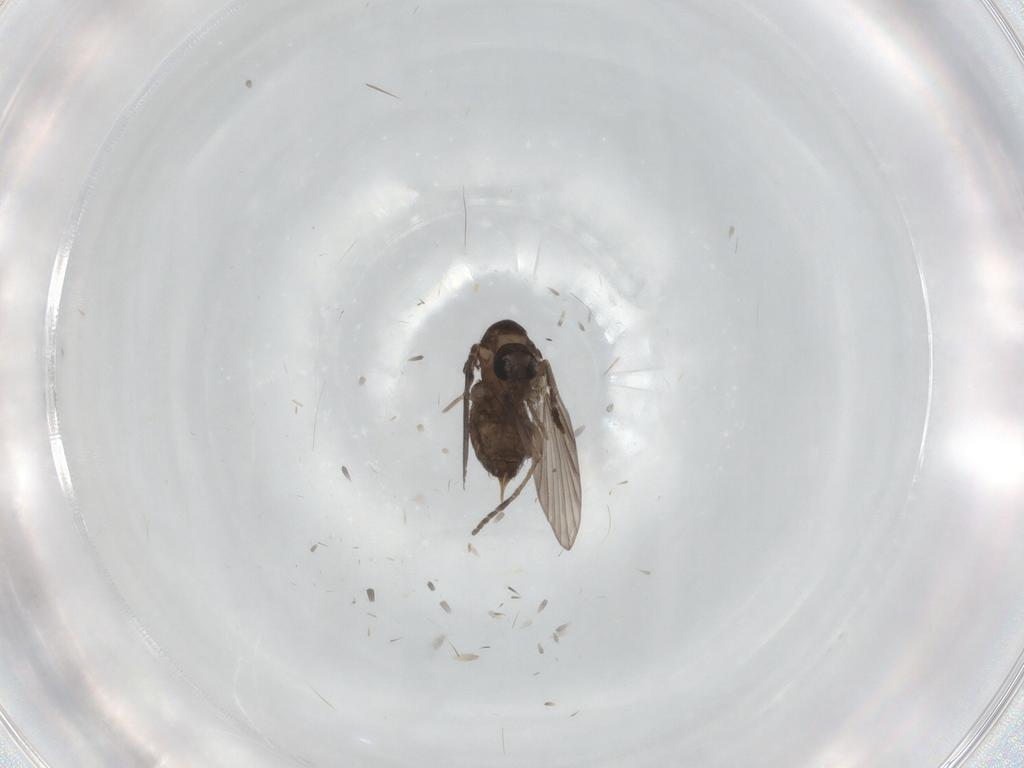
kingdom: Animalia
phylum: Arthropoda
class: Insecta
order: Diptera
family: Psychodidae
